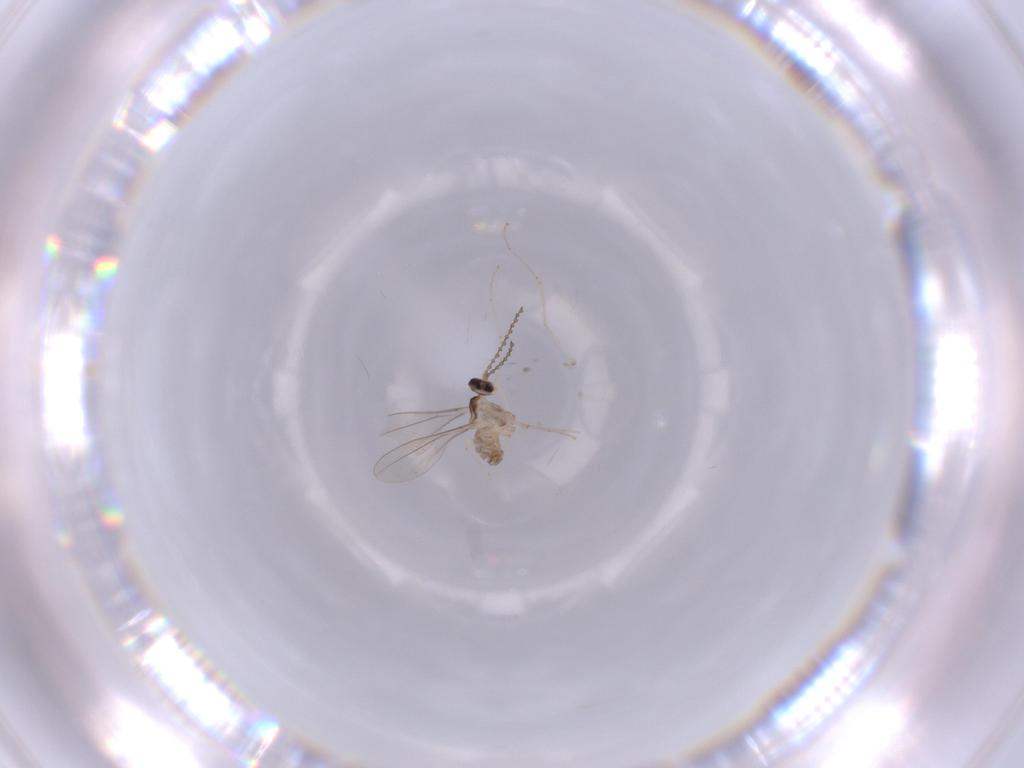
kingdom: Animalia
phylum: Arthropoda
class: Insecta
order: Diptera
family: Cecidomyiidae
